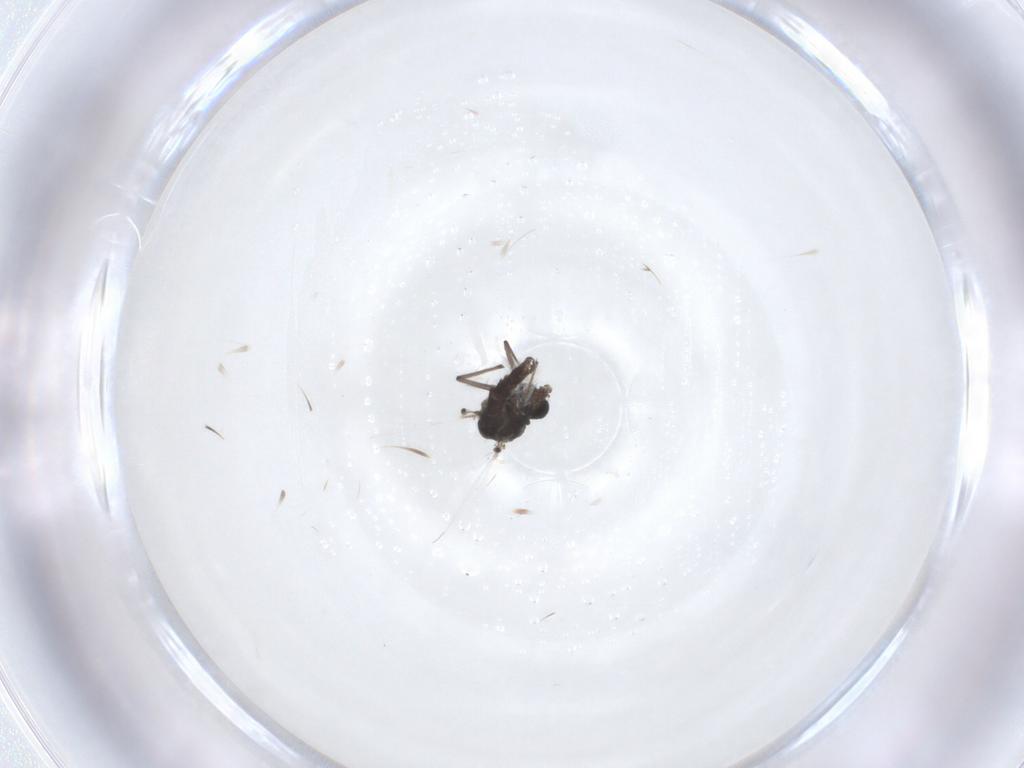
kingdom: Animalia
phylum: Arthropoda
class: Insecta
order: Diptera
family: Chironomidae
